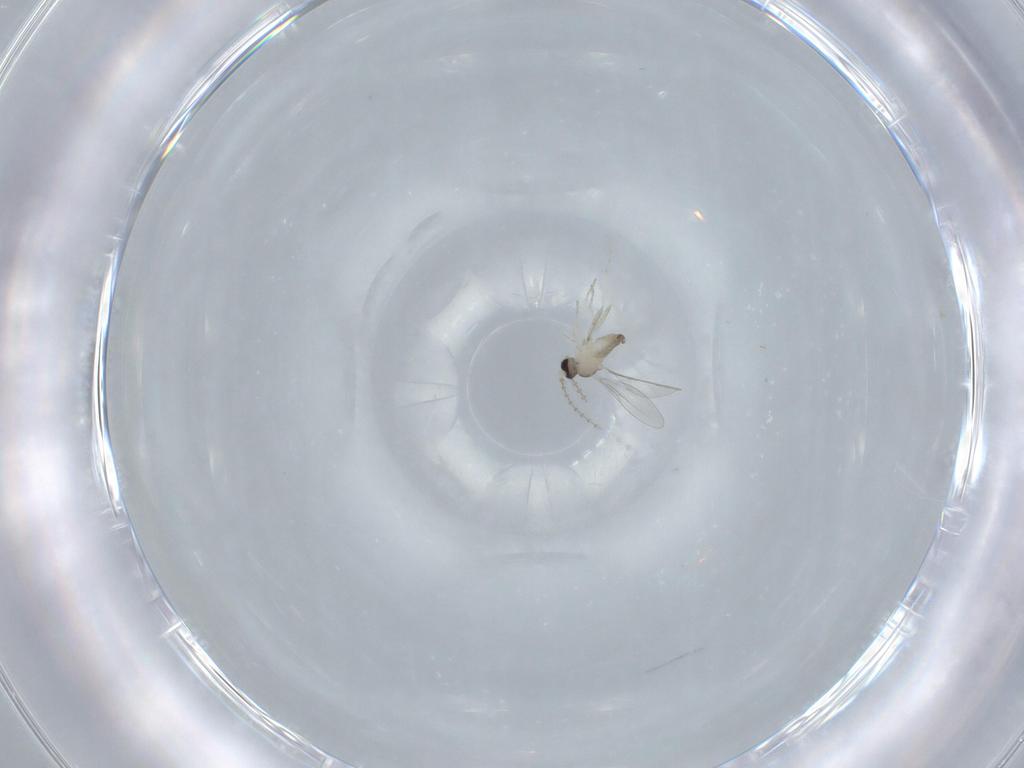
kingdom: Animalia
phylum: Arthropoda
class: Insecta
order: Diptera
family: Cecidomyiidae
